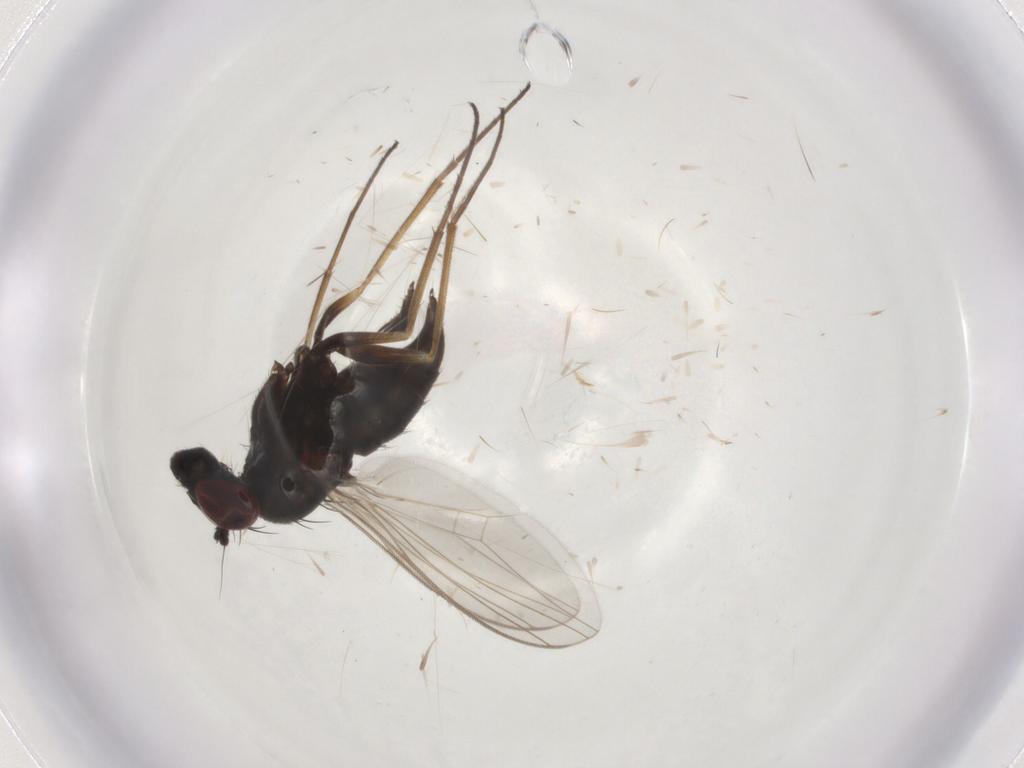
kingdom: Animalia
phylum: Arthropoda
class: Insecta
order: Diptera
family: Dolichopodidae
